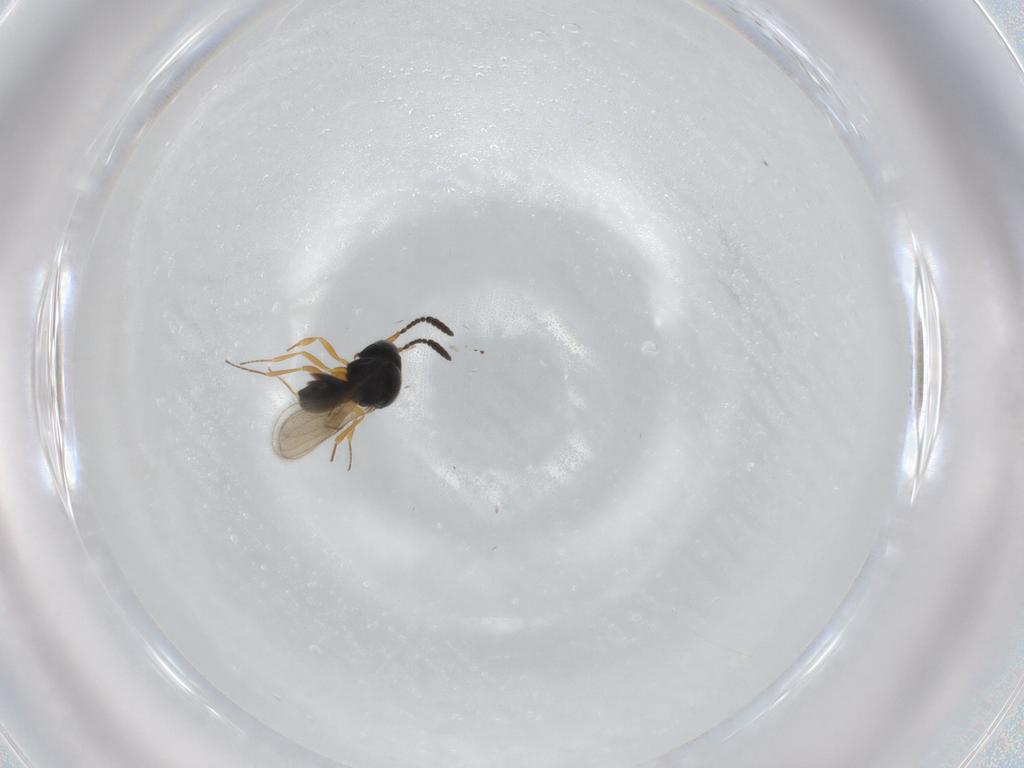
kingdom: Animalia
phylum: Arthropoda
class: Insecta
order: Hymenoptera
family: Scelionidae
